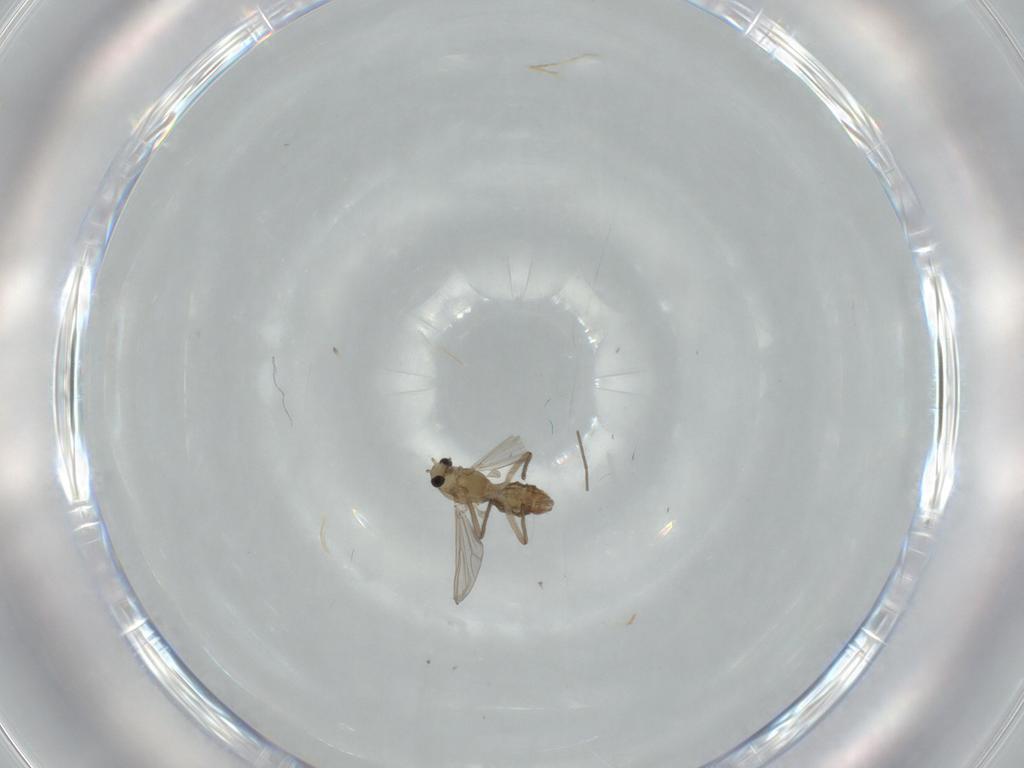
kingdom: Animalia
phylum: Arthropoda
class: Insecta
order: Diptera
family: Chironomidae
